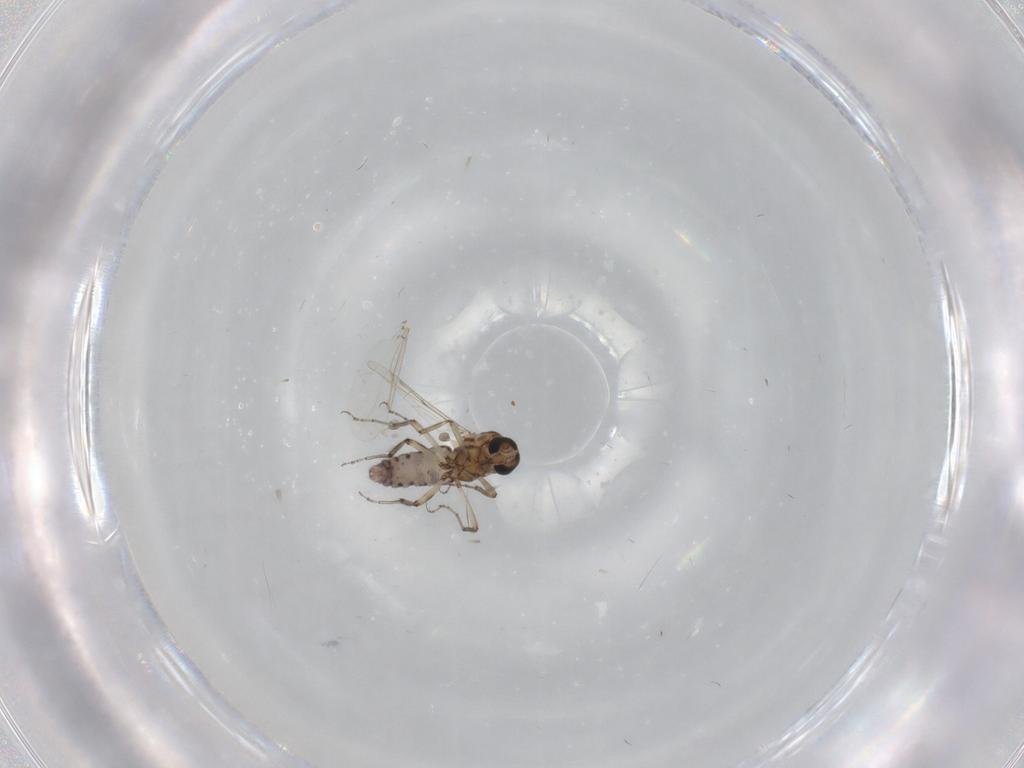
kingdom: Animalia
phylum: Arthropoda
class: Insecta
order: Diptera
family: Ceratopogonidae
